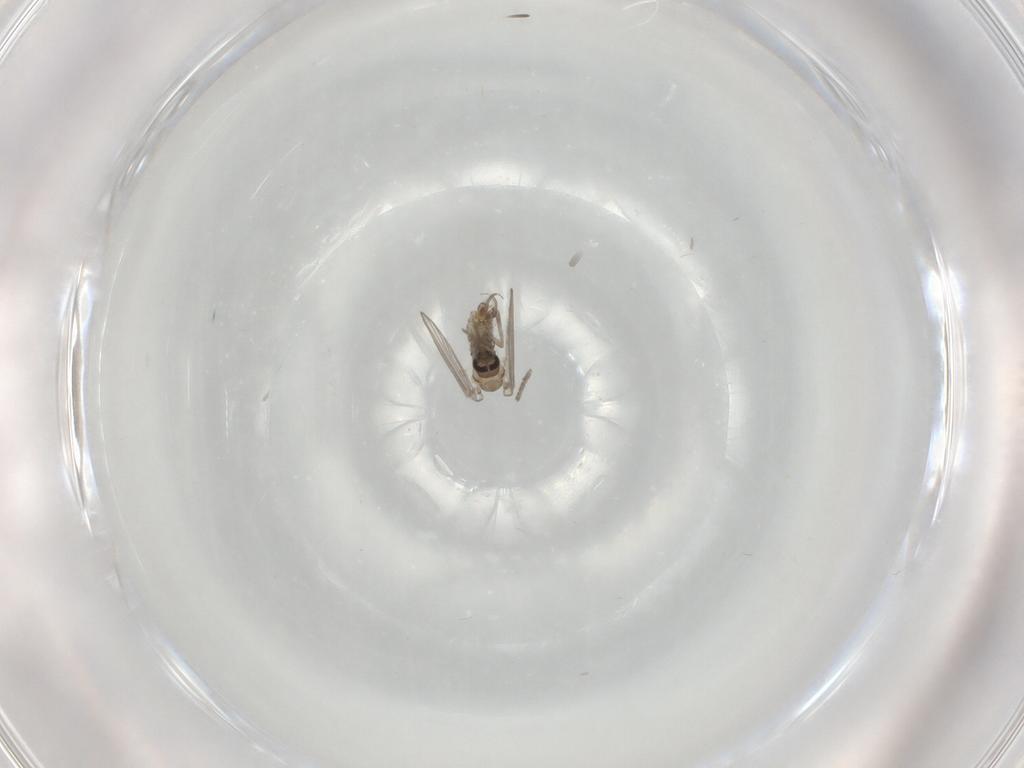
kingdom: Animalia
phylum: Arthropoda
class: Insecta
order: Diptera
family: Psychodidae
